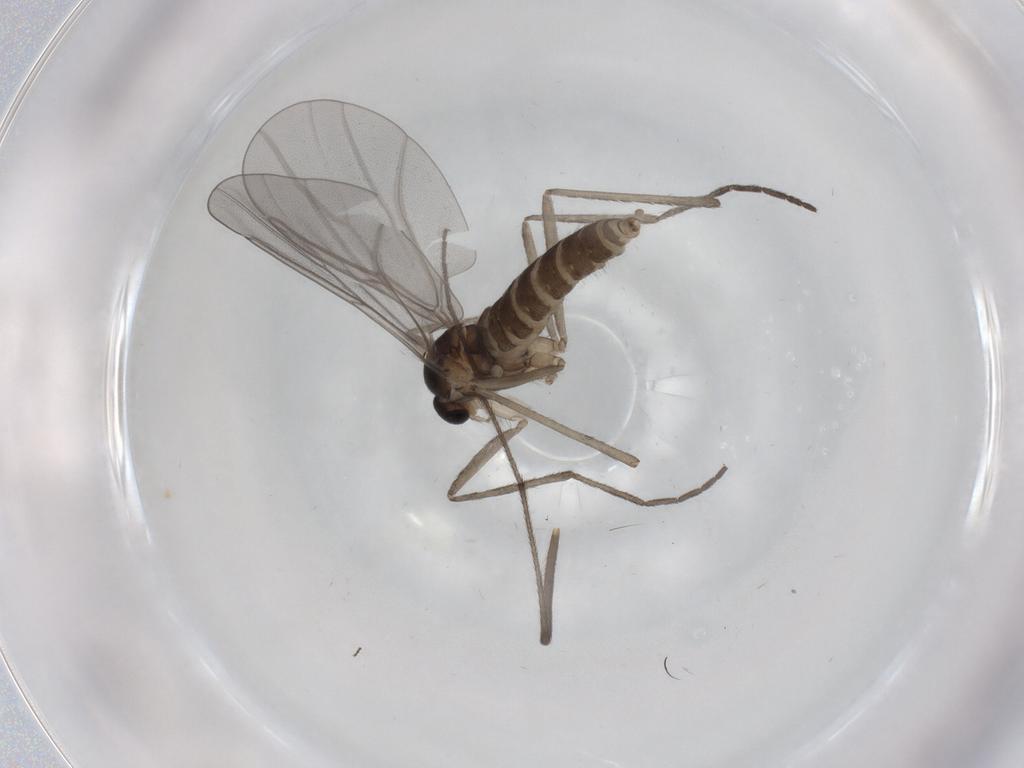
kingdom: Animalia
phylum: Arthropoda
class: Insecta
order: Diptera
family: Cecidomyiidae
